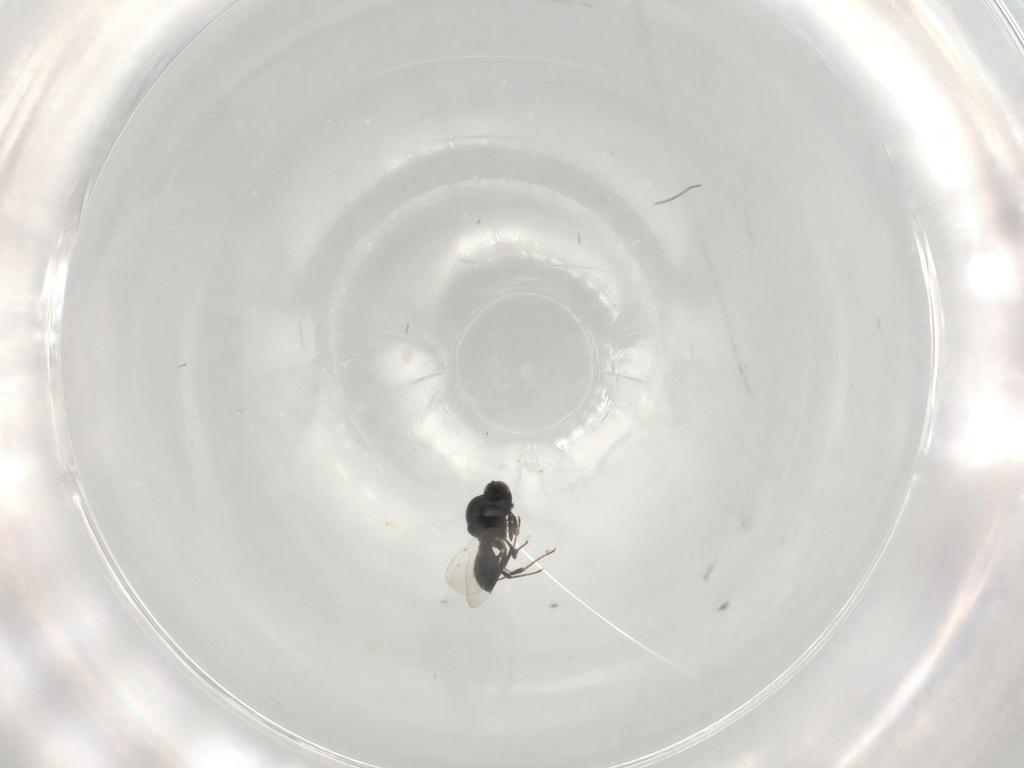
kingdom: Animalia
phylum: Arthropoda
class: Insecta
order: Hymenoptera
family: Platygastridae
